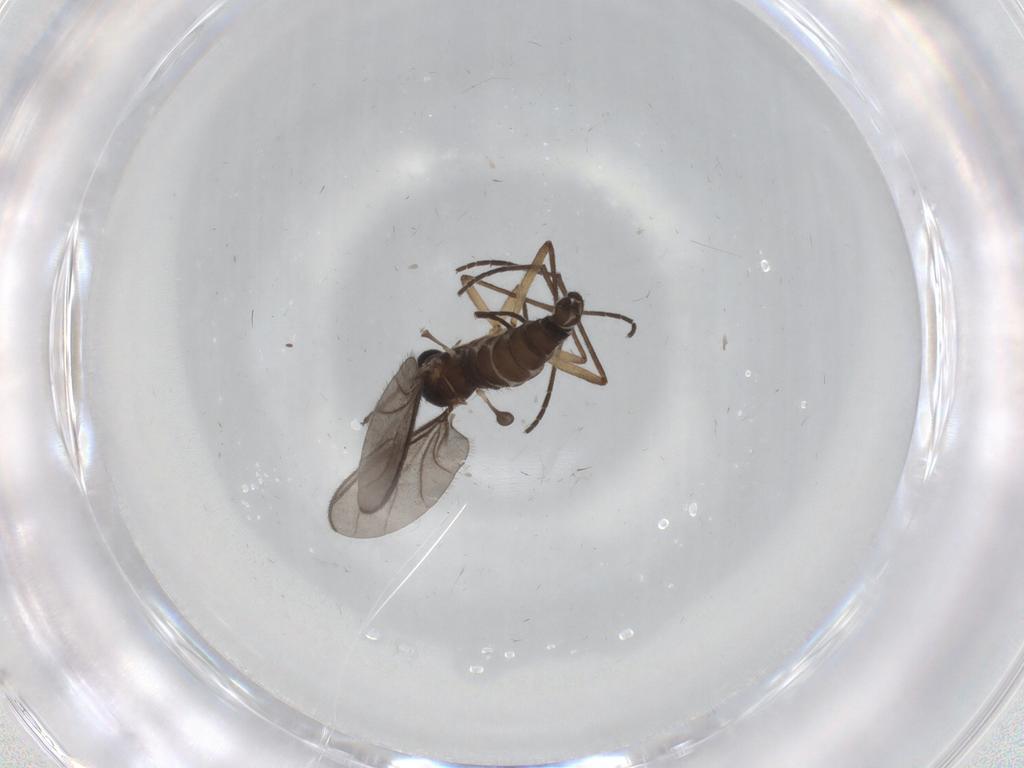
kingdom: Animalia
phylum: Arthropoda
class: Insecta
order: Diptera
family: Sciaridae
